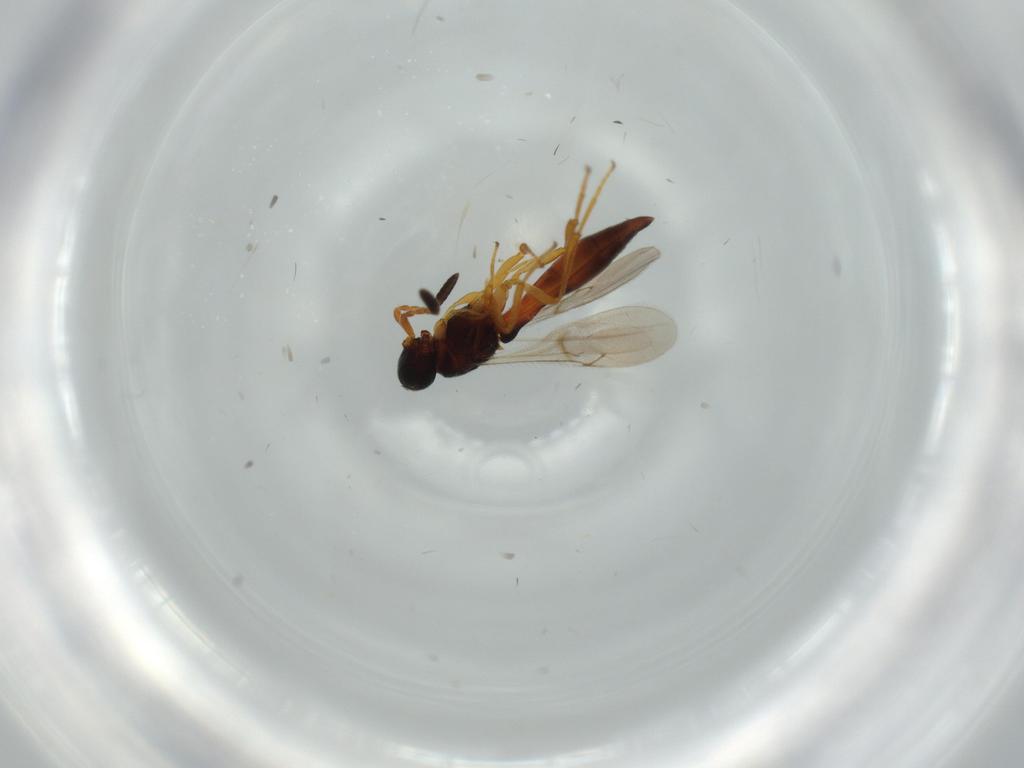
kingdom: Animalia
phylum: Arthropoda
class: Insecta
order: Hymenoptera
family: Scelionidae
